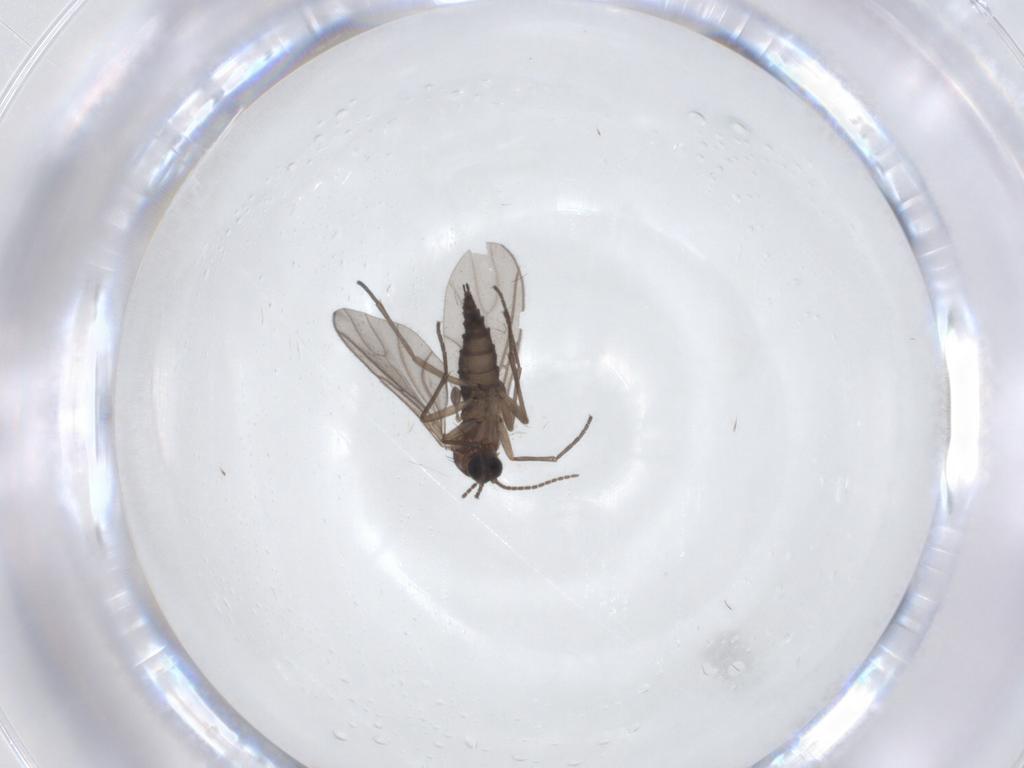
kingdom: Animalia
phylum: Arthropoda
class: Insecta
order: Diptera
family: Sciaridae
